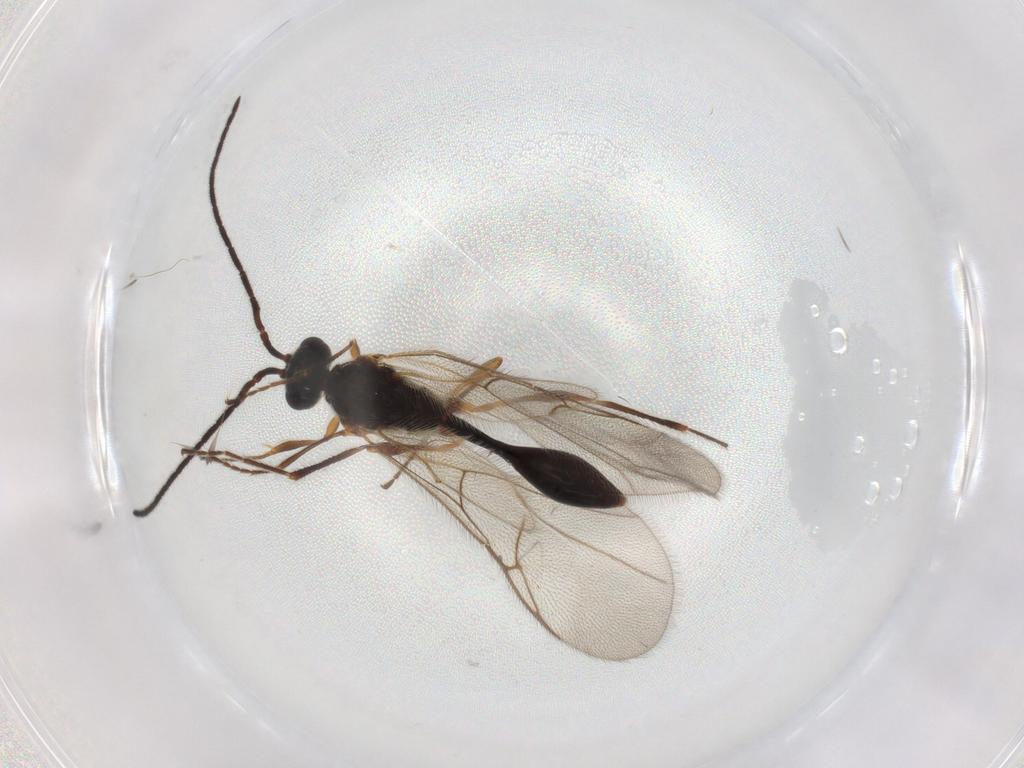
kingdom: Animalia
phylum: Arthropoda
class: Insecta
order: Hymenoptera
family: Scelionidae
